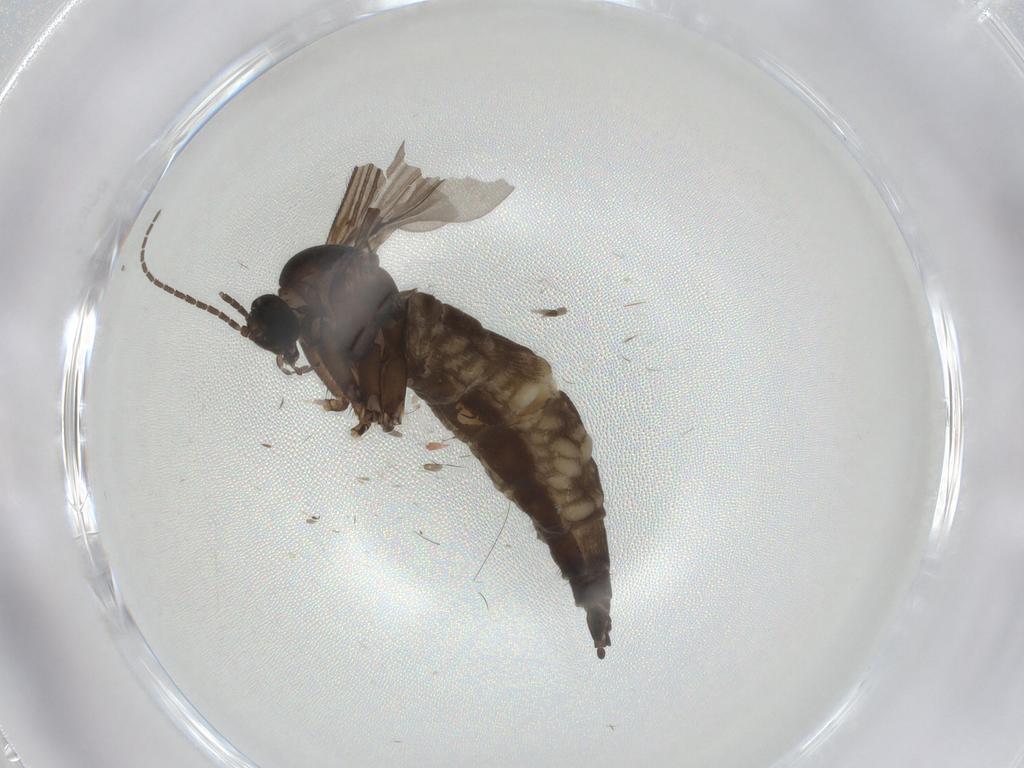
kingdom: Animalia
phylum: Arthropoda
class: Insecta
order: Diptera
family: Sciaridae
